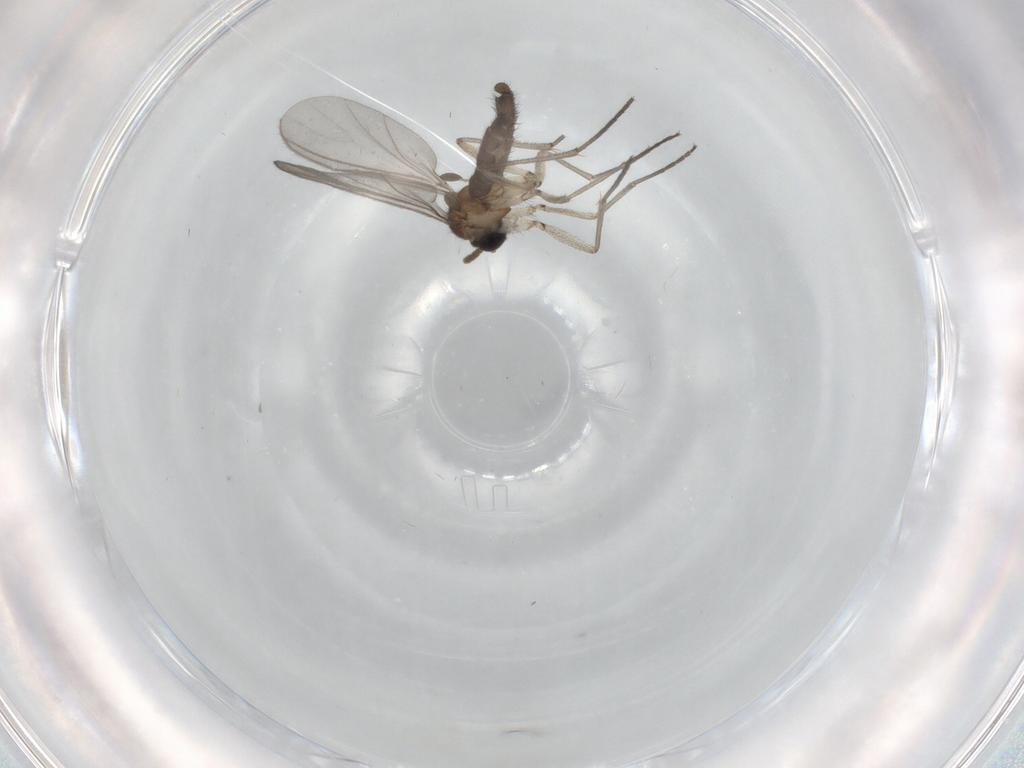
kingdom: Animalia
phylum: Arthropoda
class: Insecta
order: Diptera
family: Sciaridae
